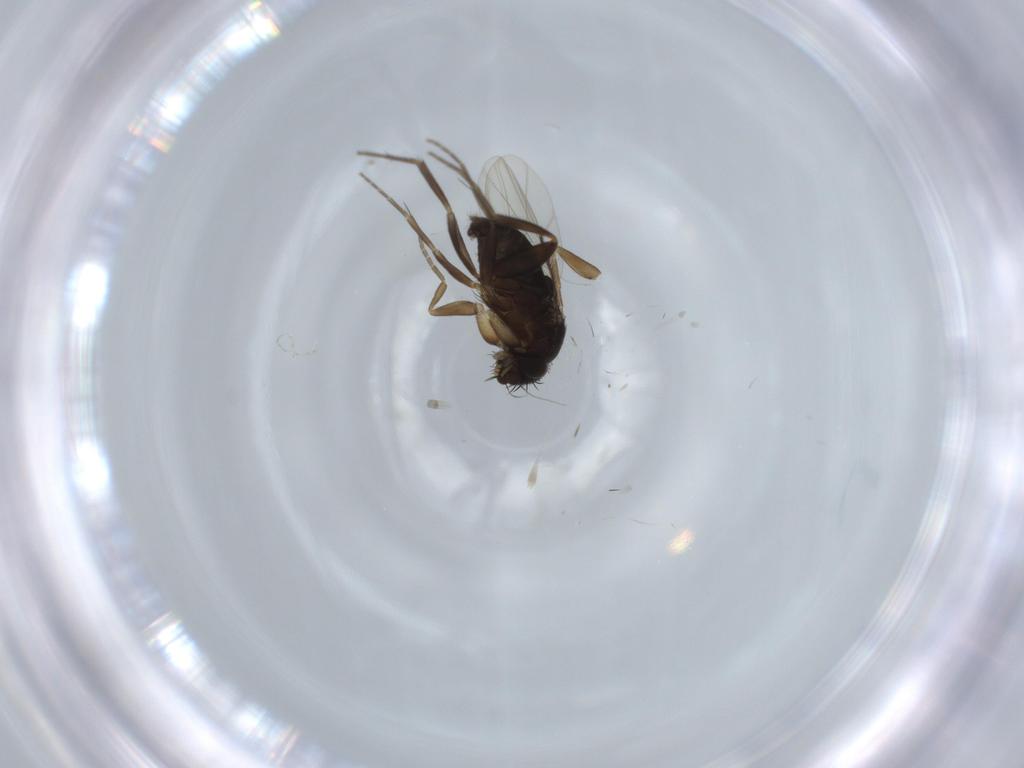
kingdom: Animalia
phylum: Arthropoda
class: Insecta
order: Diptera
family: Phoridae
